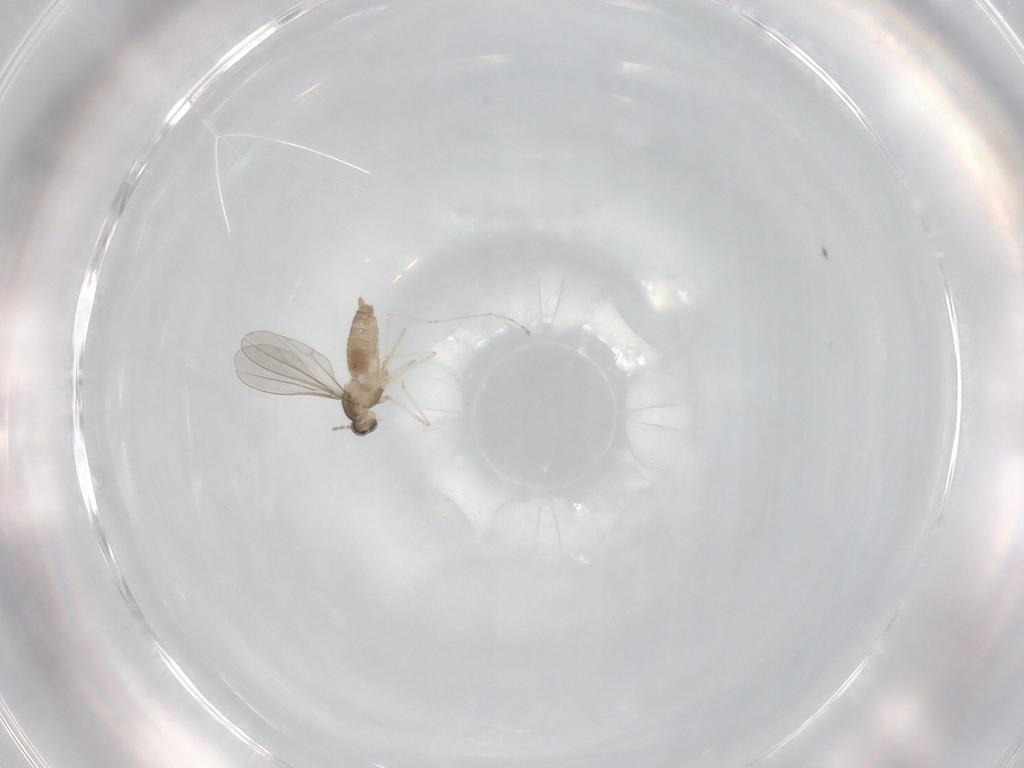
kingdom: Animalia
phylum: Arthropoda
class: Insecta
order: Diptera
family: Cecidomyiidae
